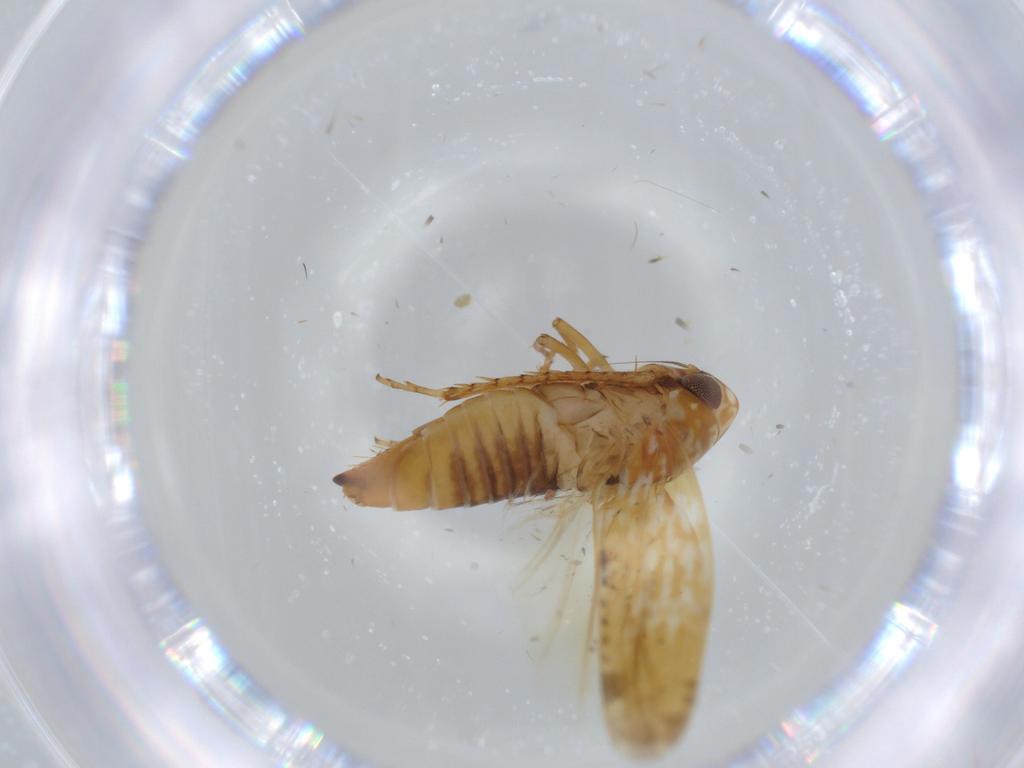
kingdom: Animalia
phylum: Arthropoda
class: Insecta
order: Hemiptera
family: Cicadellidae
